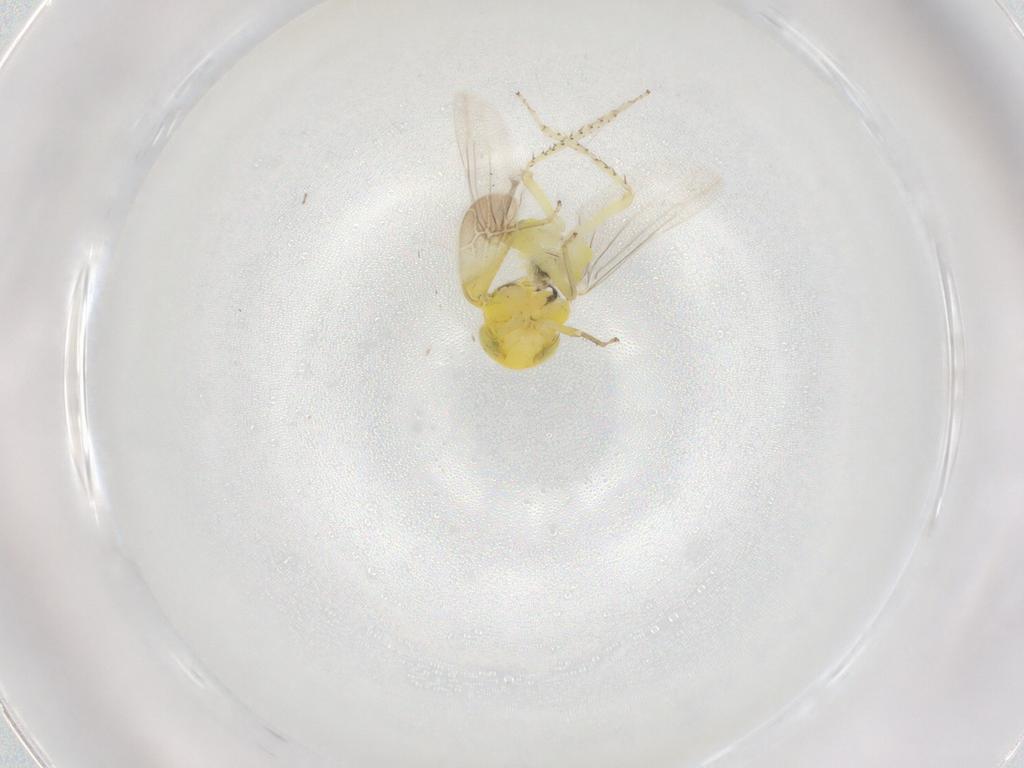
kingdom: Animalia
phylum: Arthropoda
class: Insecta
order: Hemiptera
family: Cicadellidae
